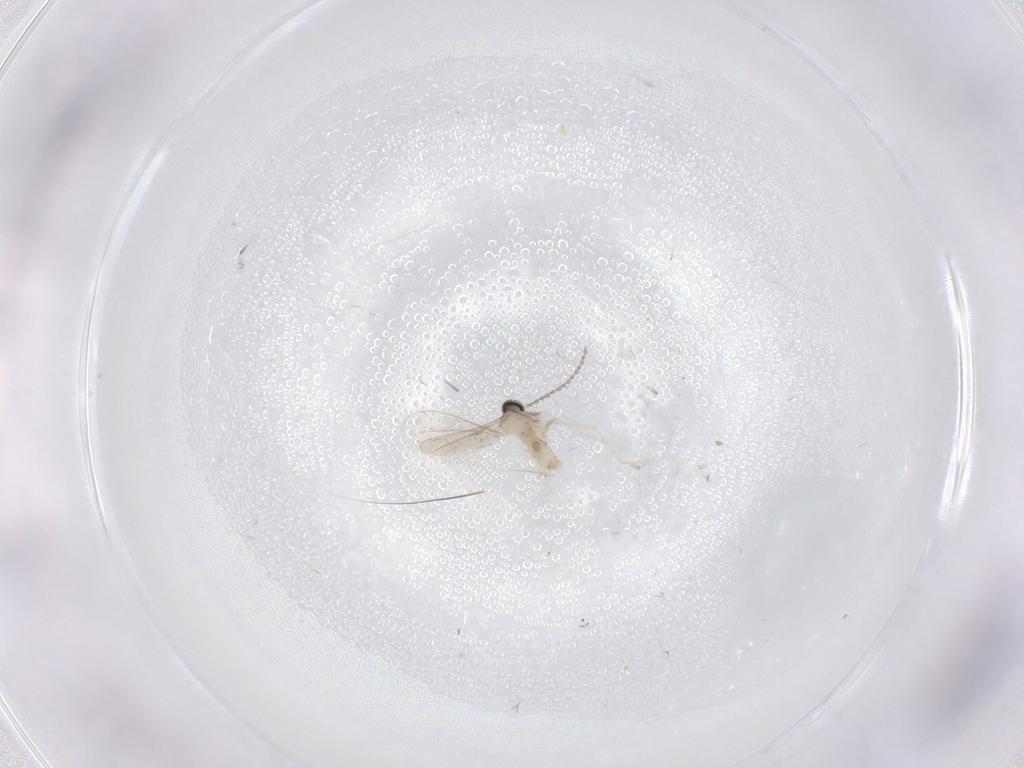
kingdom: Animalia
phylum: Arthropoda
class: Insecta
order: Diptera
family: Cecidomyiidae
